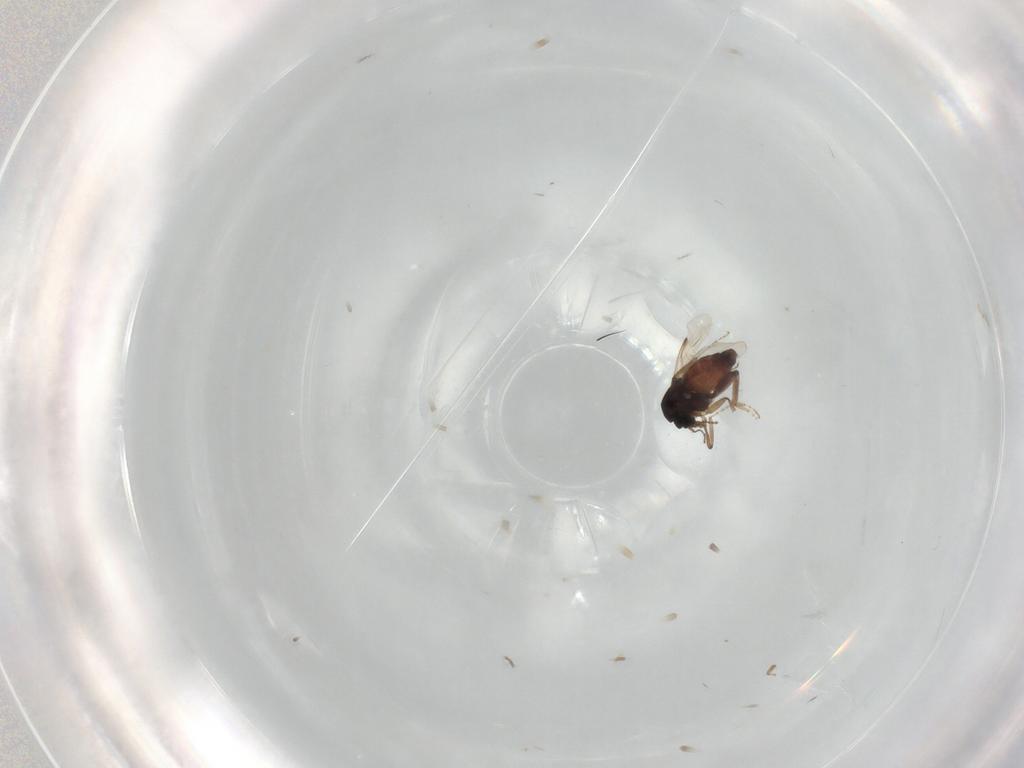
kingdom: Animalia
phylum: Arthropoda
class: Insecta
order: Diptera
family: Ceratopogonidae
